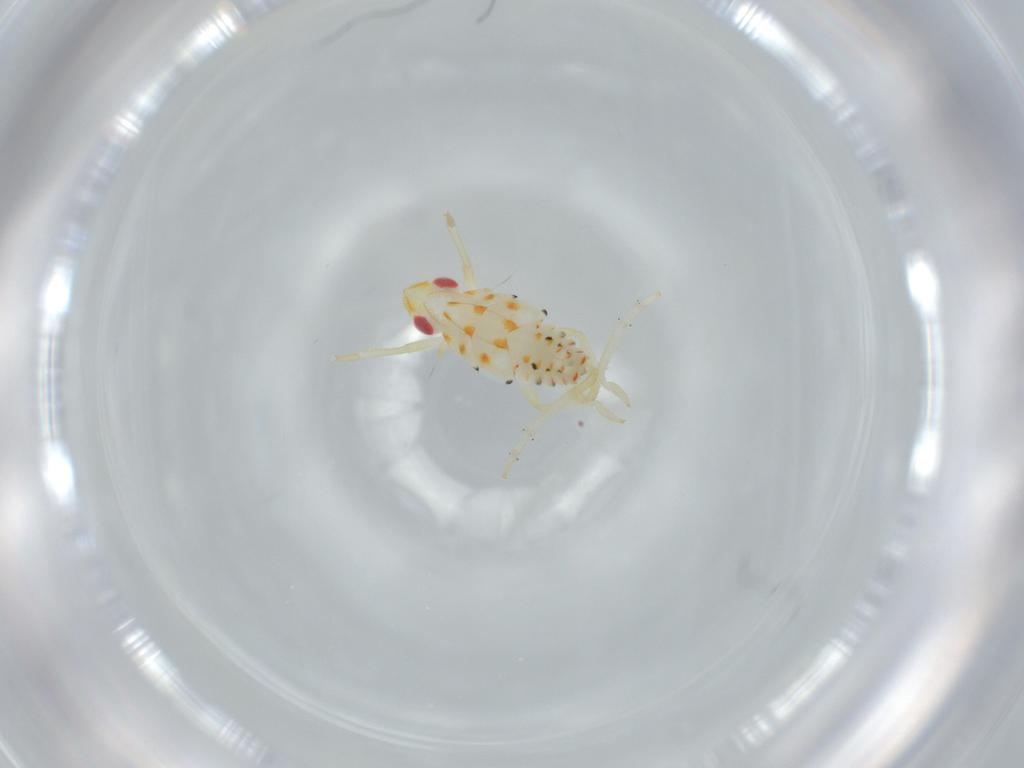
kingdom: Animalia
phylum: Arthropoda
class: Insecta
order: Hemiptera
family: Tropiduchidae
